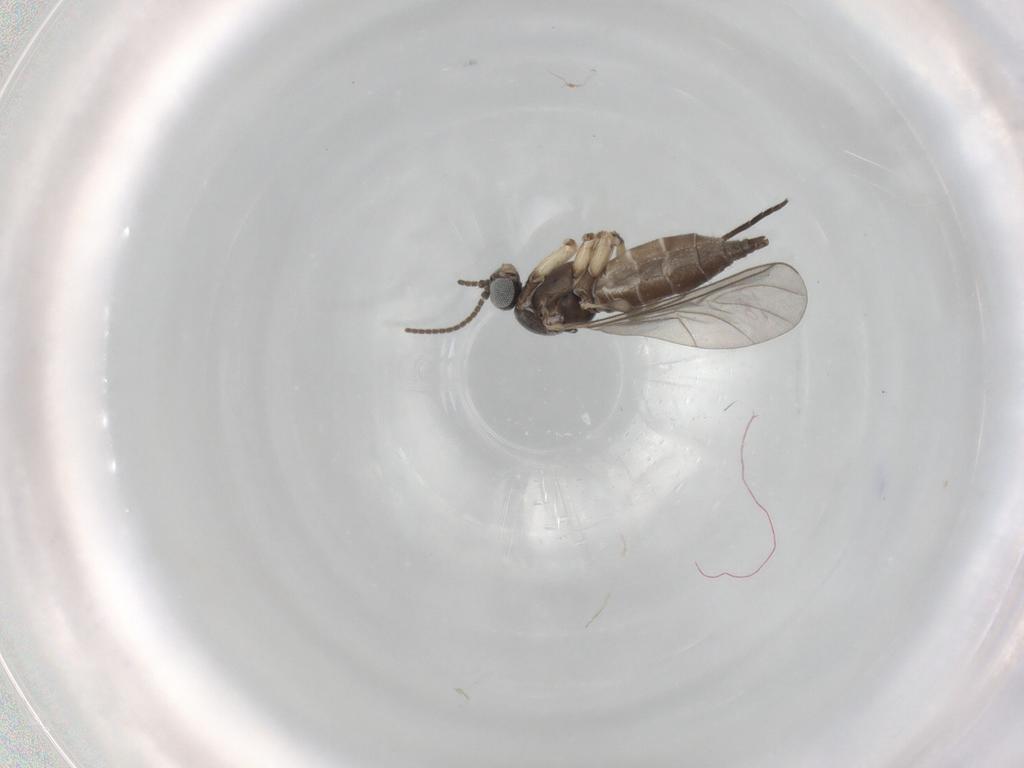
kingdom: Animalia
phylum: Arthropoda
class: Insecta
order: Diptera
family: Sciaridae
